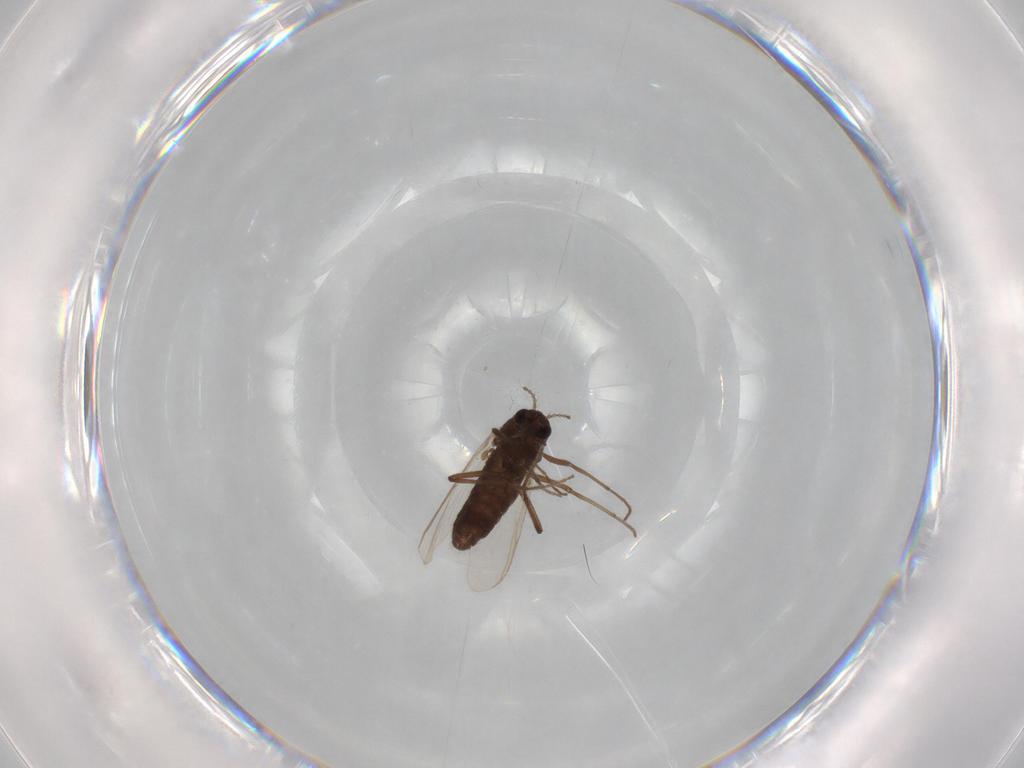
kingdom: Animalia
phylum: Arthropoda
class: Insecta
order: Diptera
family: Chironomidae
